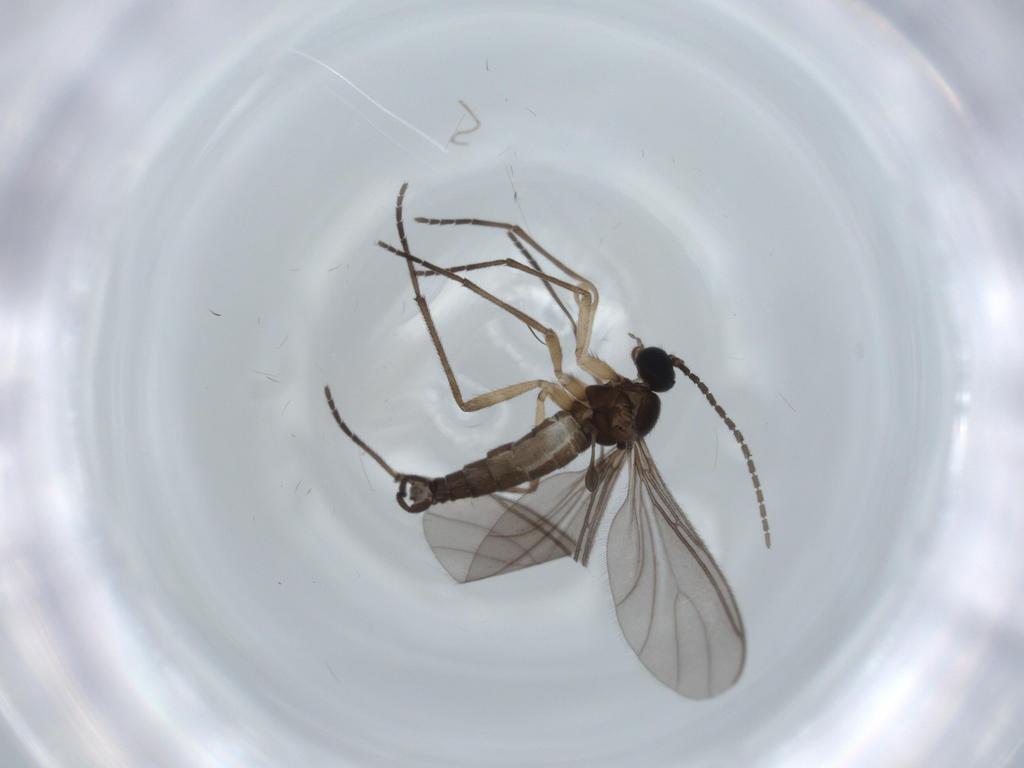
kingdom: Animalia
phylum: Arthropoda
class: Insecta
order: Diptera
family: Sciaridae
